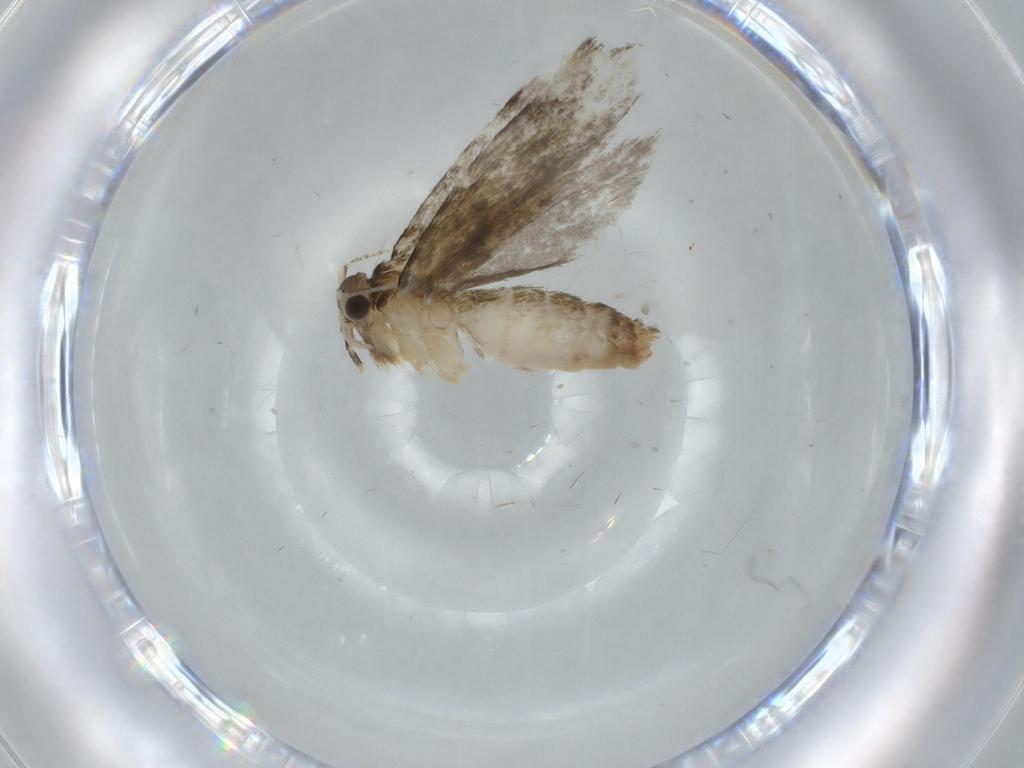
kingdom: Animalia
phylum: Arthropoda
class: Insecta
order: Lepidoptera
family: Tineidae
